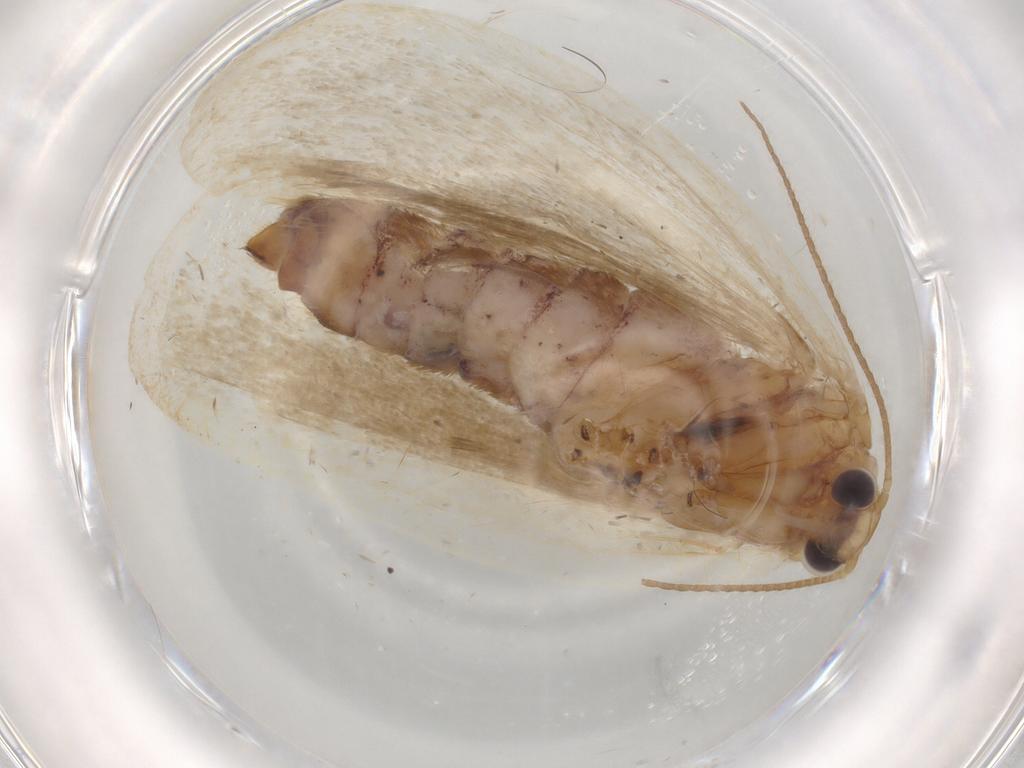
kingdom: Animalia
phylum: Arthropoda
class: Insecta
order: Lepidoptera
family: Erebidae
